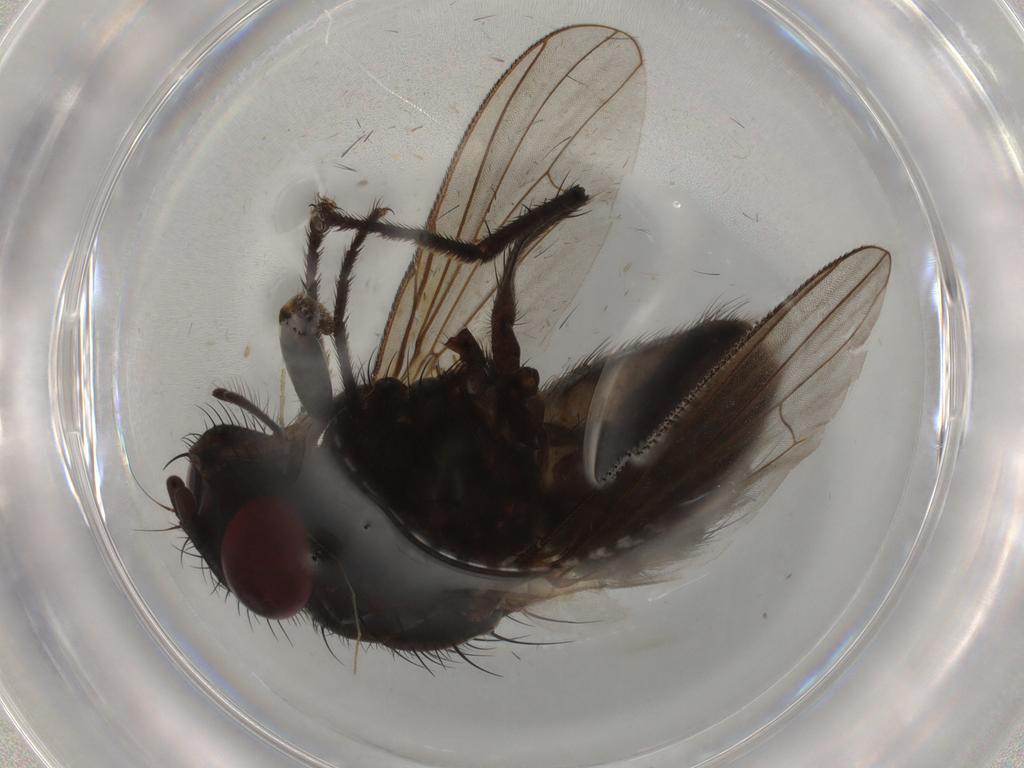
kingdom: Animalia
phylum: Arthropoda
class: Insecta
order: Diptera
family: Muscidae
